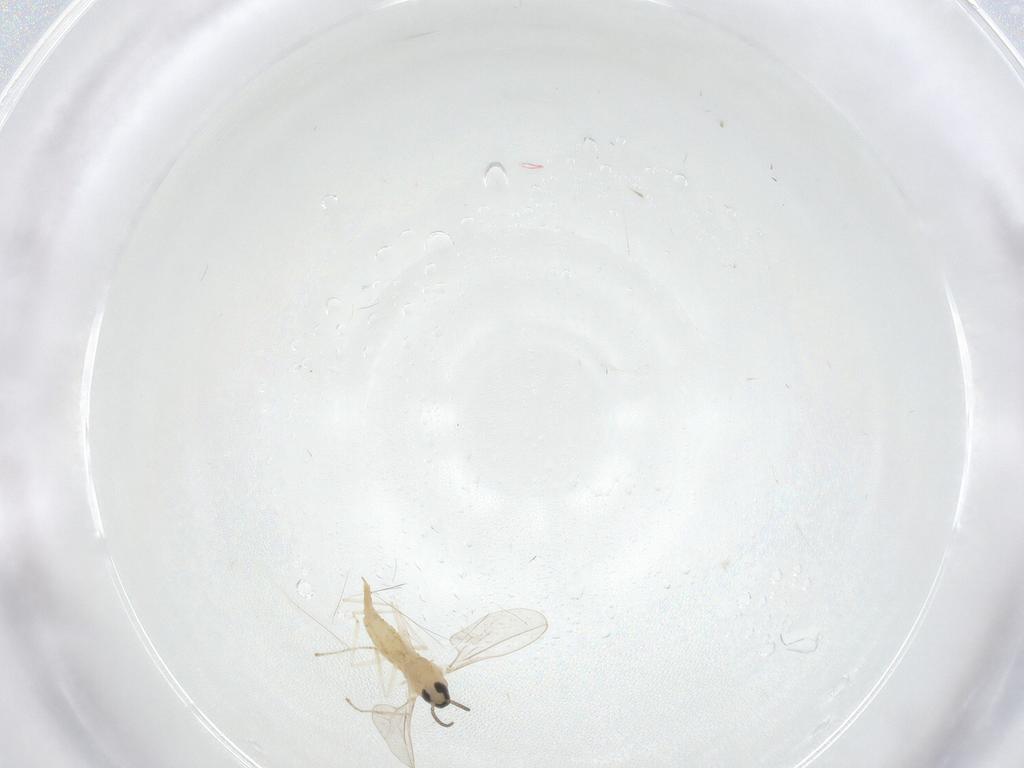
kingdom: Animalia
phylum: Arthropoda
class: Insecta
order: Diptera
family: Cecidomyiidae
